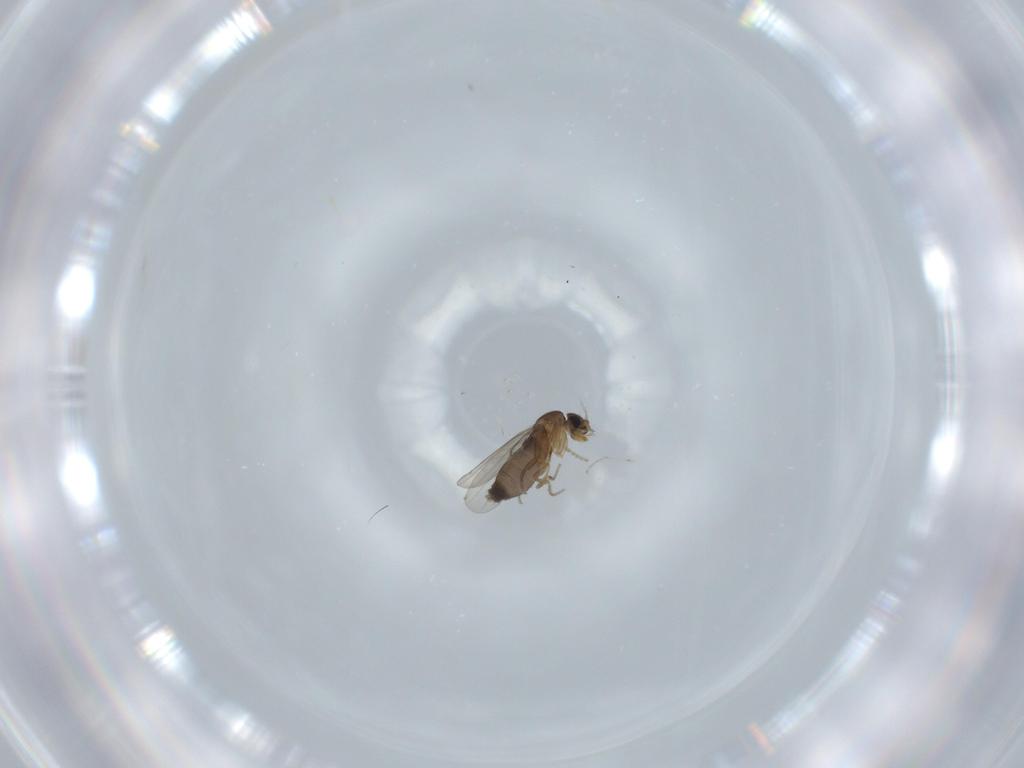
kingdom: Animalia
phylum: Arthropoda
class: Insecta
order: Diptera
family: Phoridae
